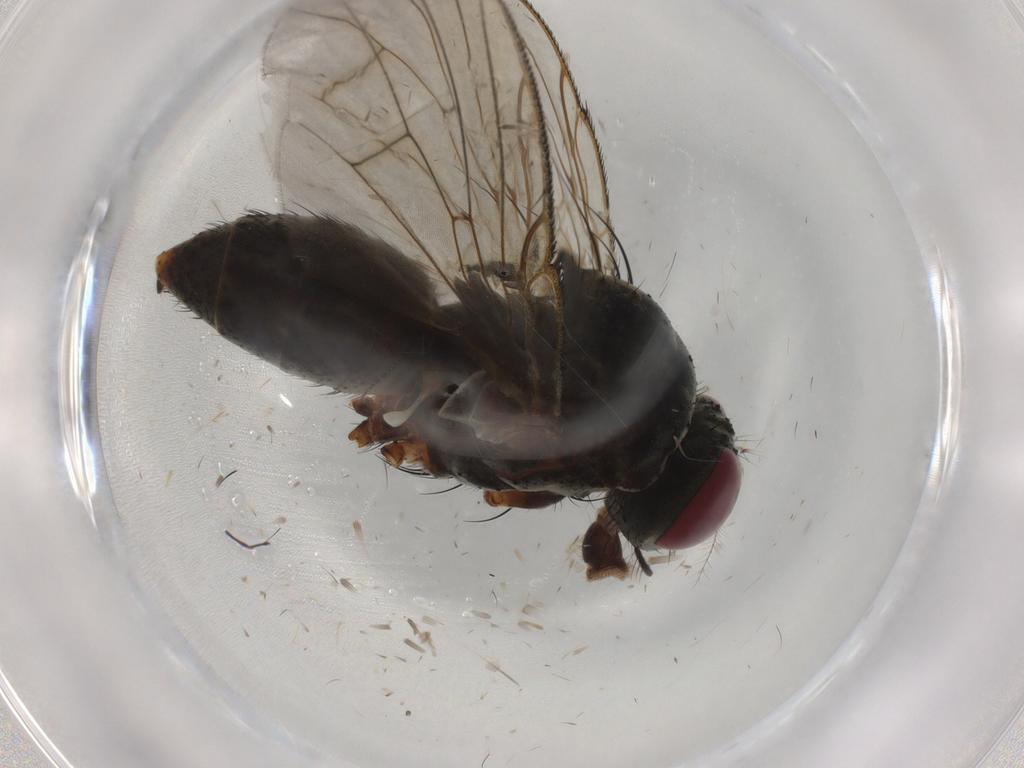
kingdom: Animalia
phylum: Arthropoda
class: Insecta
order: Diptera
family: Muscidae
